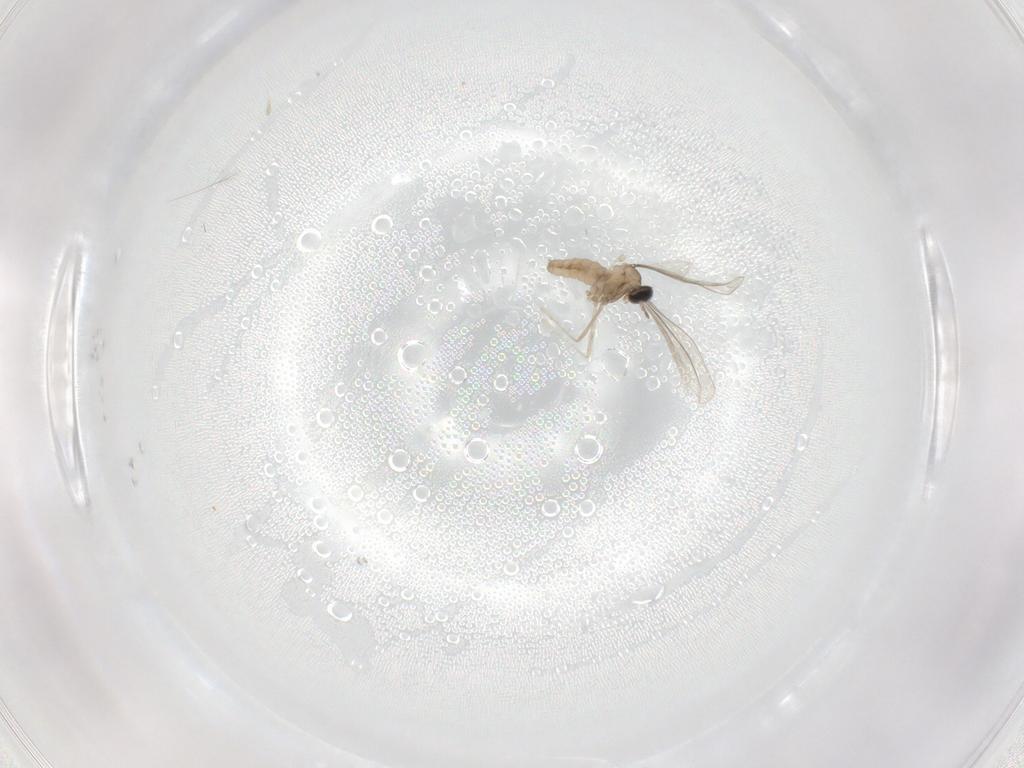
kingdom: Animalia
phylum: Arthropoda
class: Insecta
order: Diptera
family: Cecidomyiidae
